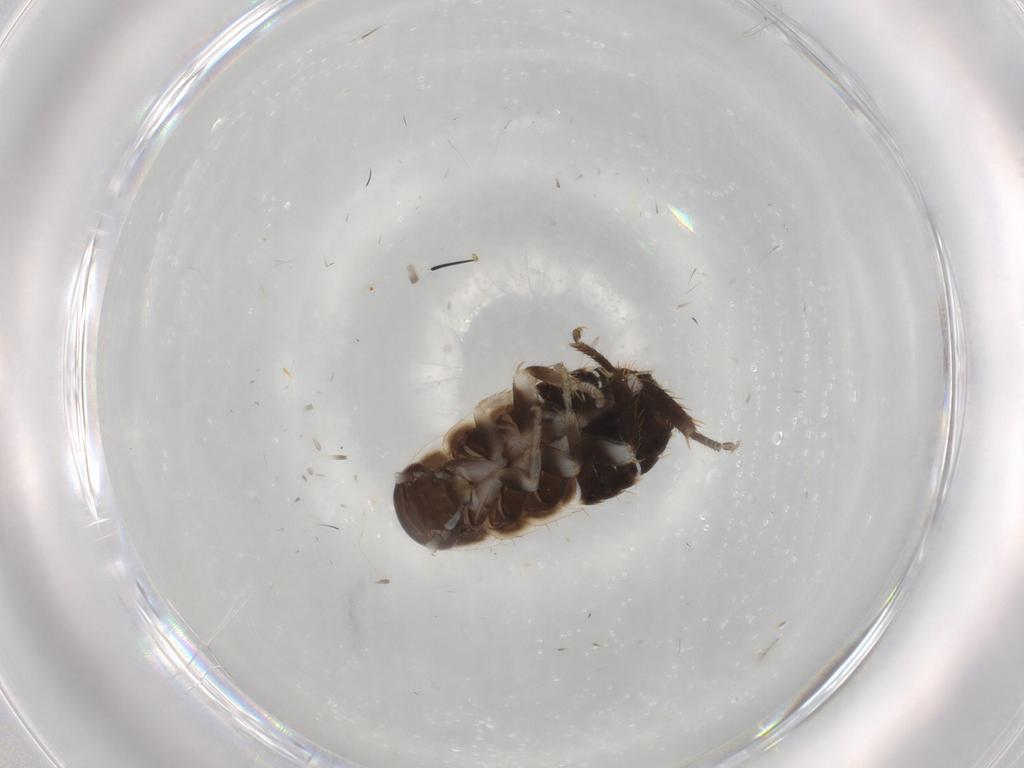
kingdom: Animalia
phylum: Arthropoda
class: Insecta
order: Blattodea
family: Ectobiidae
